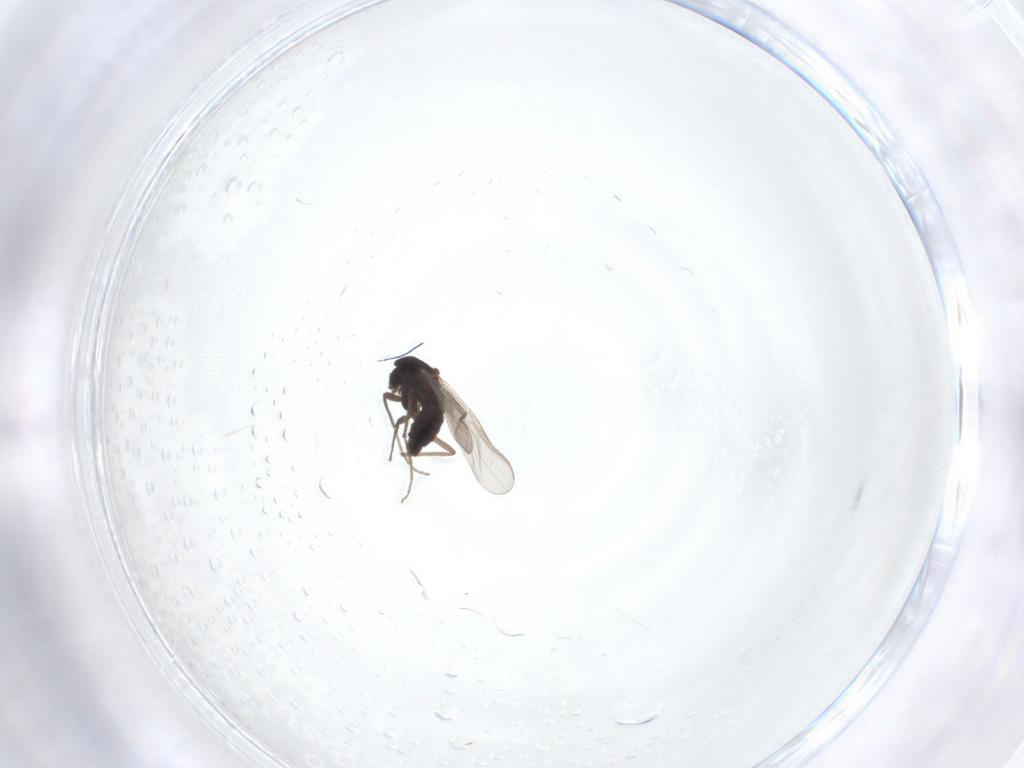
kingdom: Animalia
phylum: Arthropoda
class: Insecta
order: Diptera
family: Chironomidae
